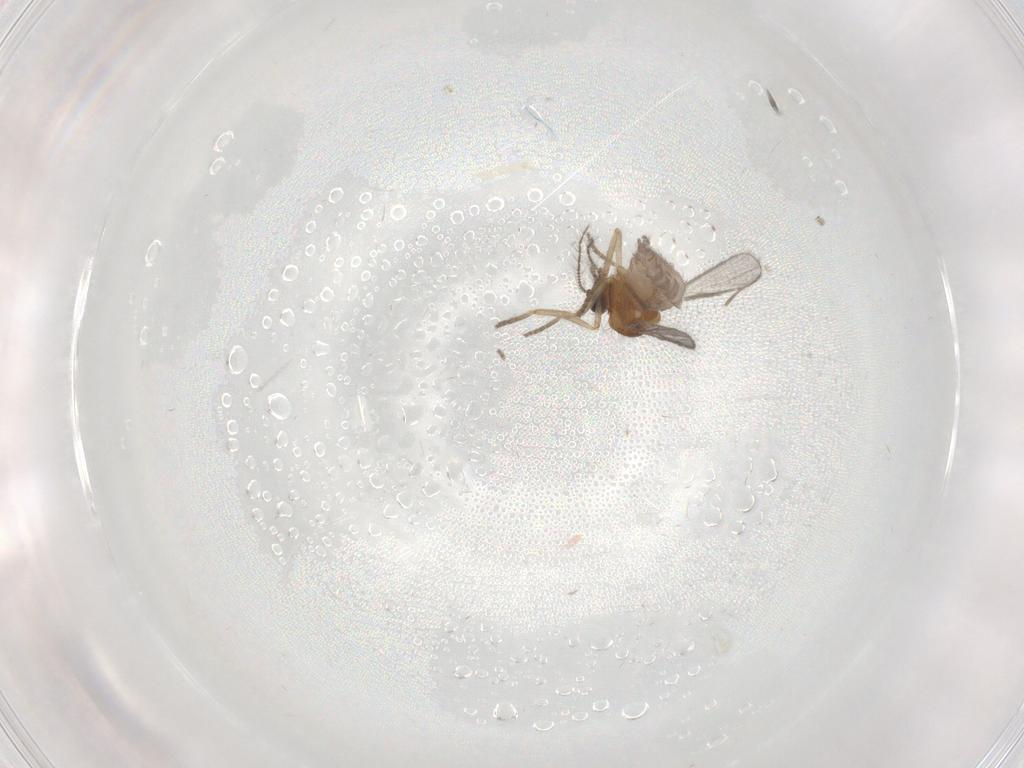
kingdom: Animalia
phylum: Arthropoda
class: Insecta
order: Diptera
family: Ceratopogonidae
